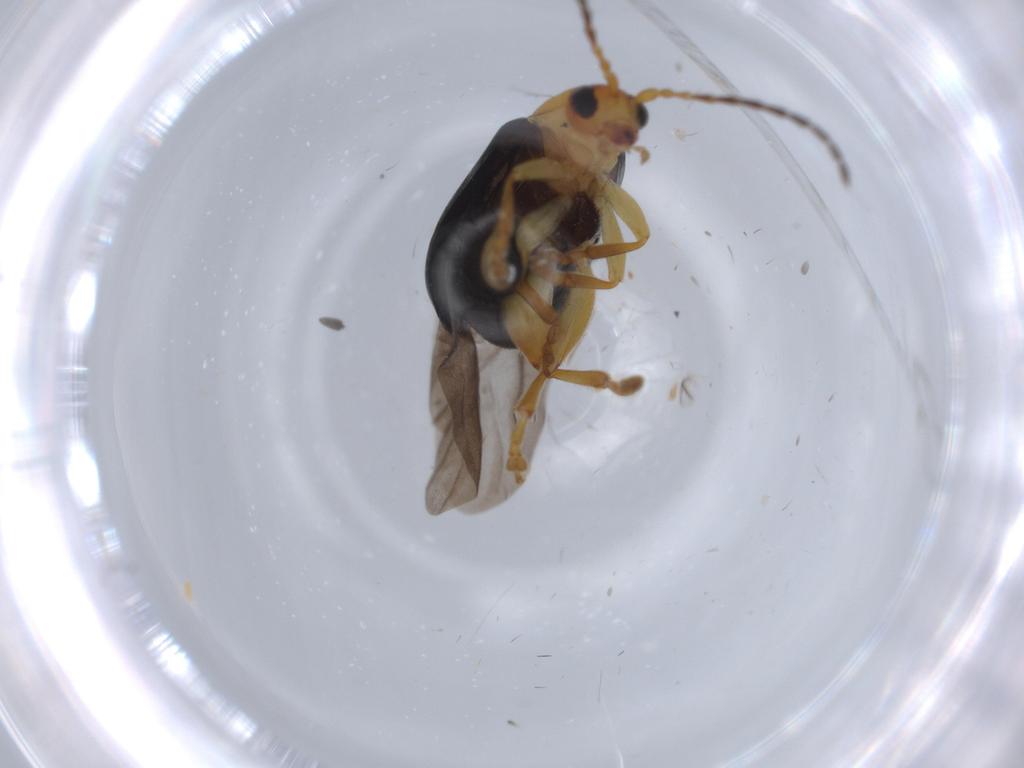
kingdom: Animalia
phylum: Arthropoda
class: Insecta
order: Coleoptera
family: Chrysomelidae
